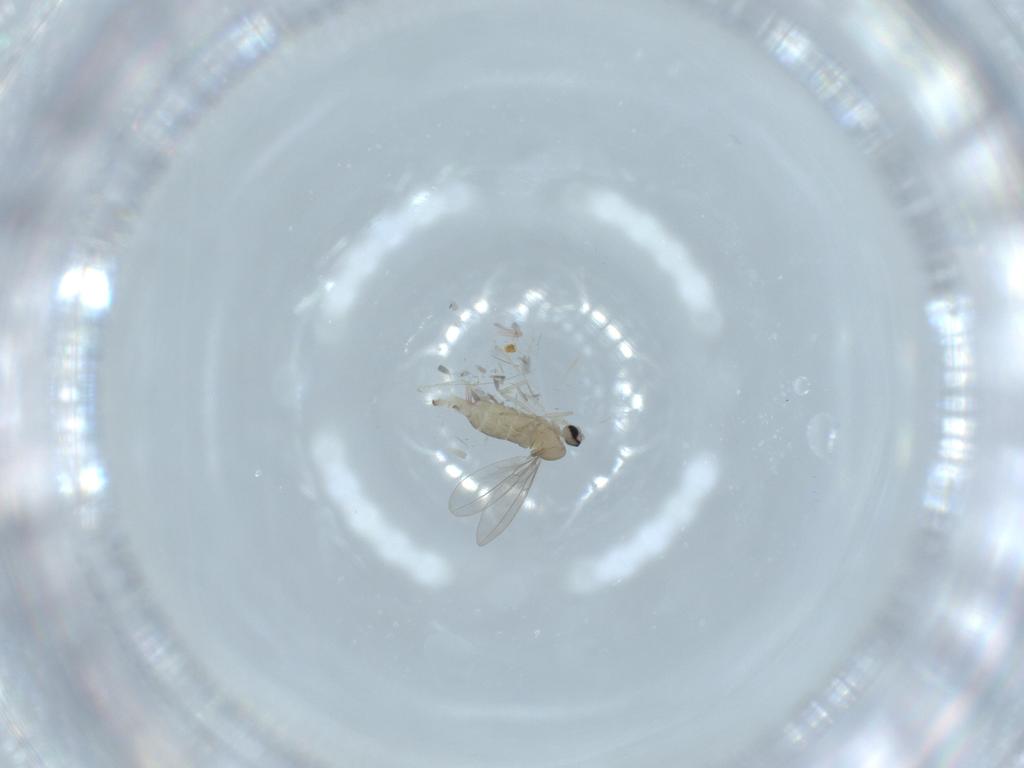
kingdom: Animalia
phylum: Arthropoda
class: Insecta
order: Diptera
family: Cecidomyiidae
